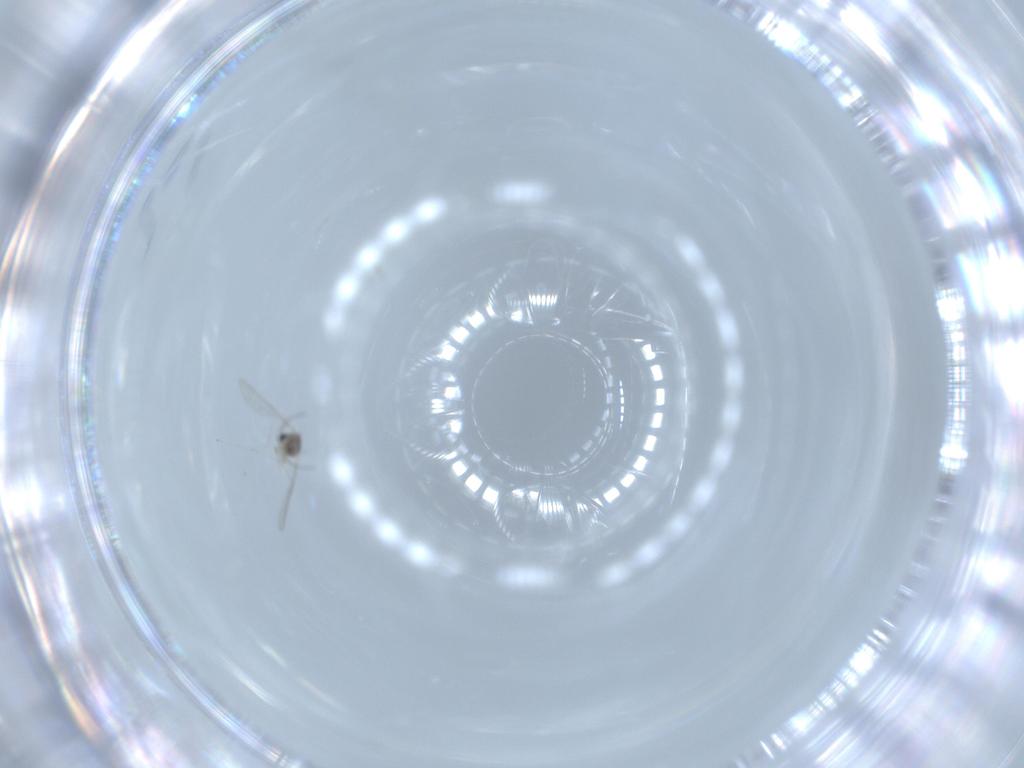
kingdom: Animalia
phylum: Arthropoda
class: Insecta
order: Diptera
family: Cecidomyiidae
